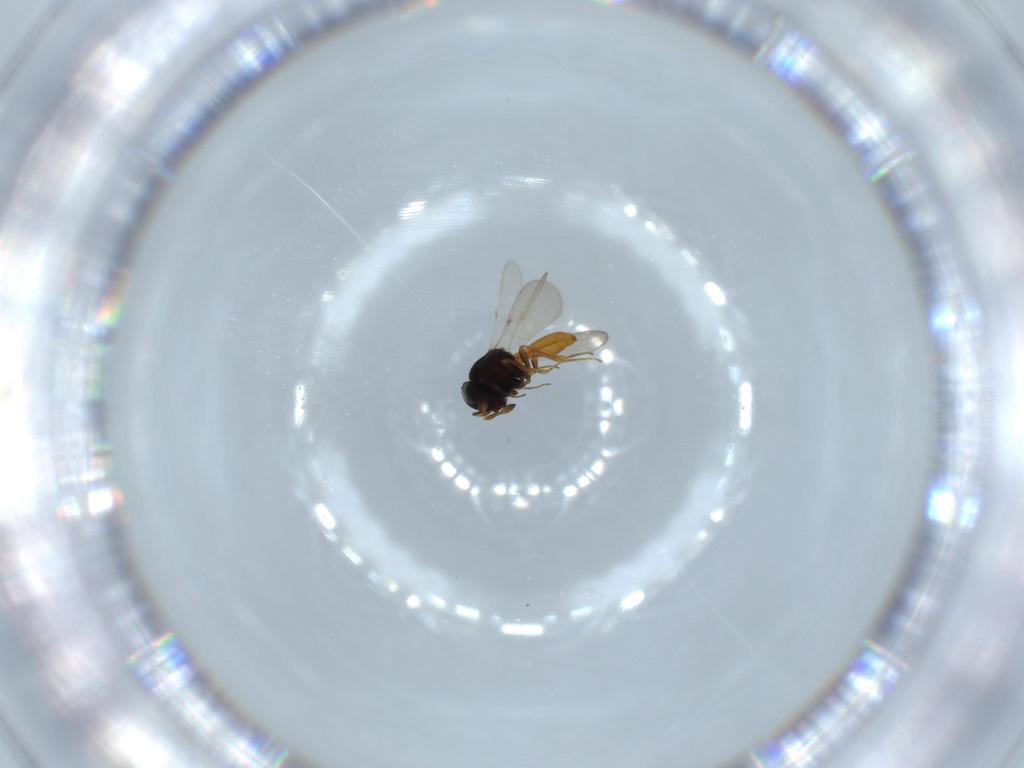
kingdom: Animalia
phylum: Arthropoda
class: Insecta
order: Hymenoptera
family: Scelionidae
